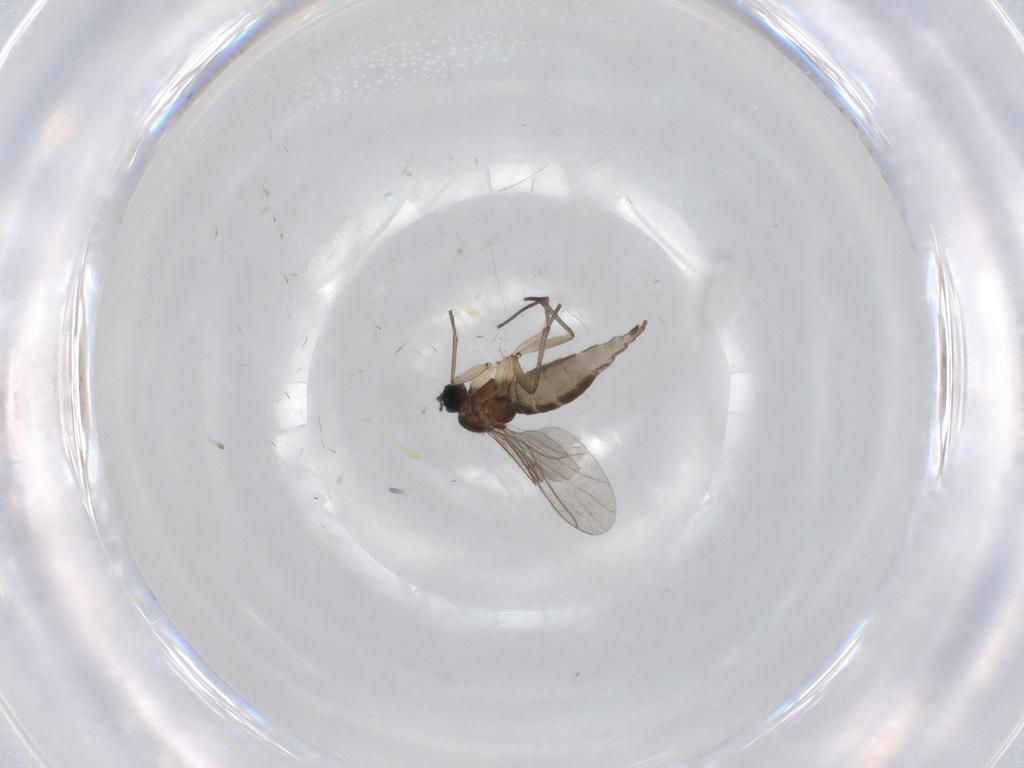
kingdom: Animalia
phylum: Arthropoda
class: Insecta
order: Diptera
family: Sciaridae
